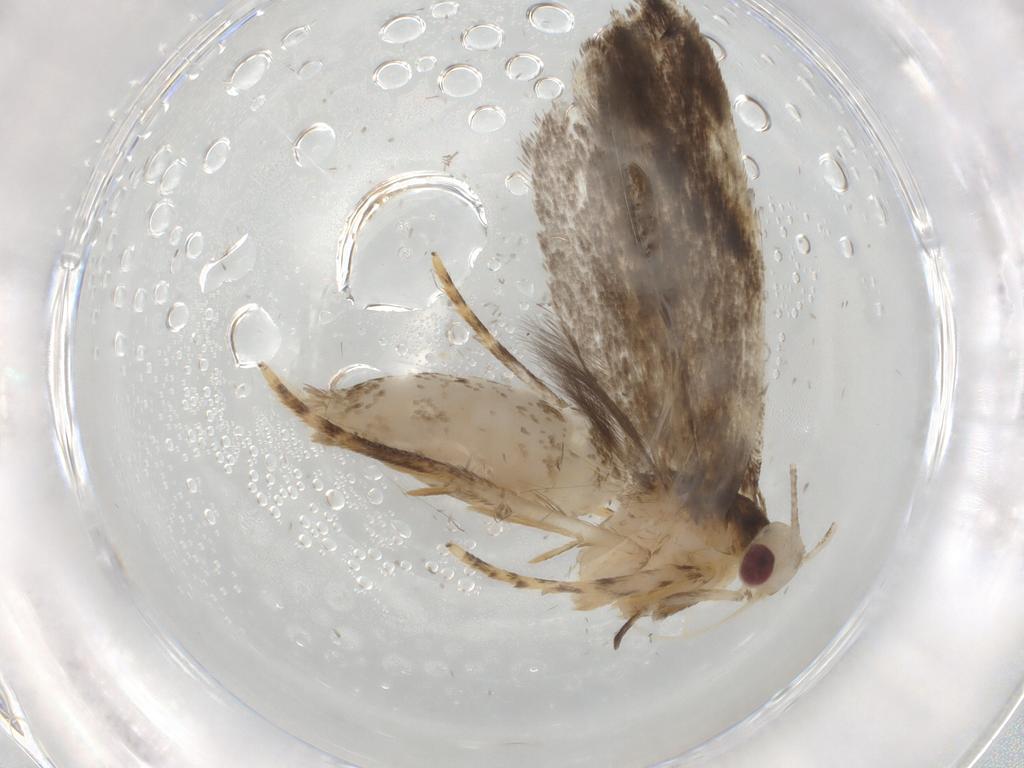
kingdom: Animalia
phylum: Arthropoda
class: Insecta
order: Lepidoptera
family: Gelechiidae
